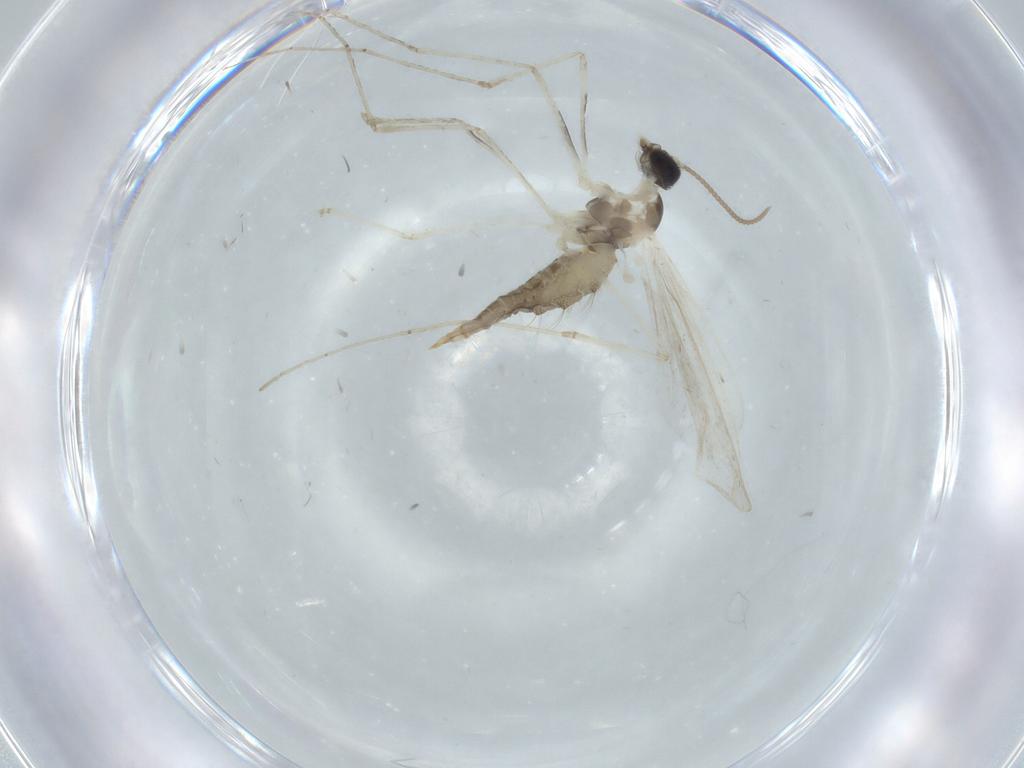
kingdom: Animalia
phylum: Arthropoda
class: Insecta
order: Diptera
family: Cecidomyiidae
